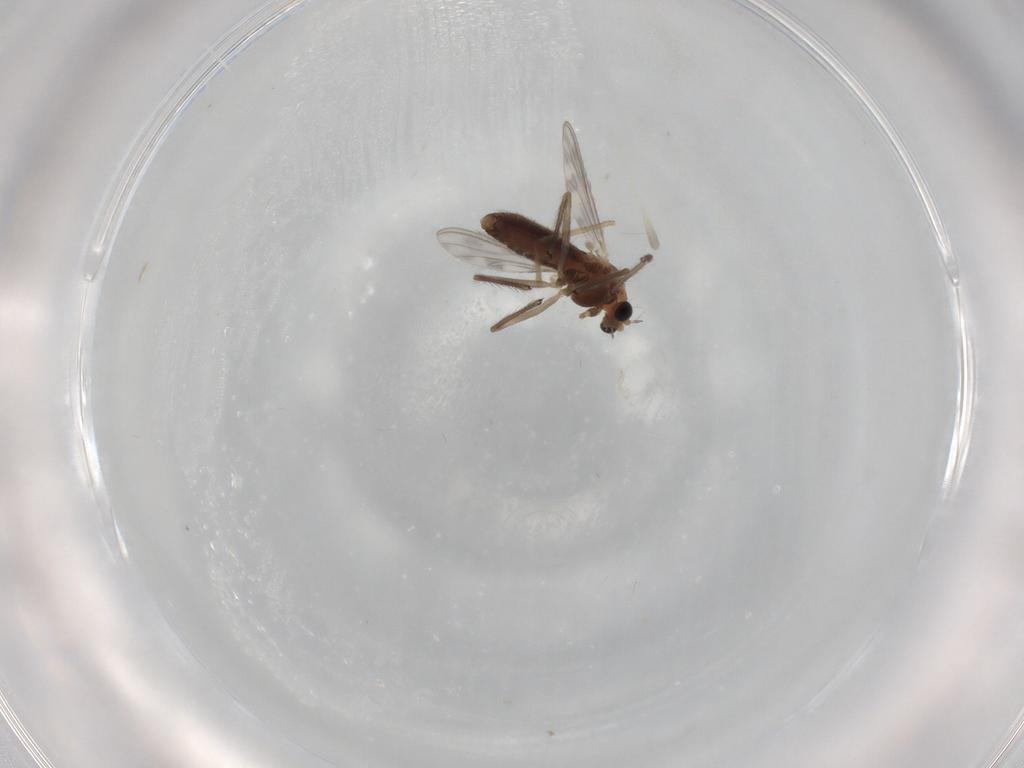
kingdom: Animalia
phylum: Arthropoda
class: Insecta
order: Diptera
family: Chironomidae
